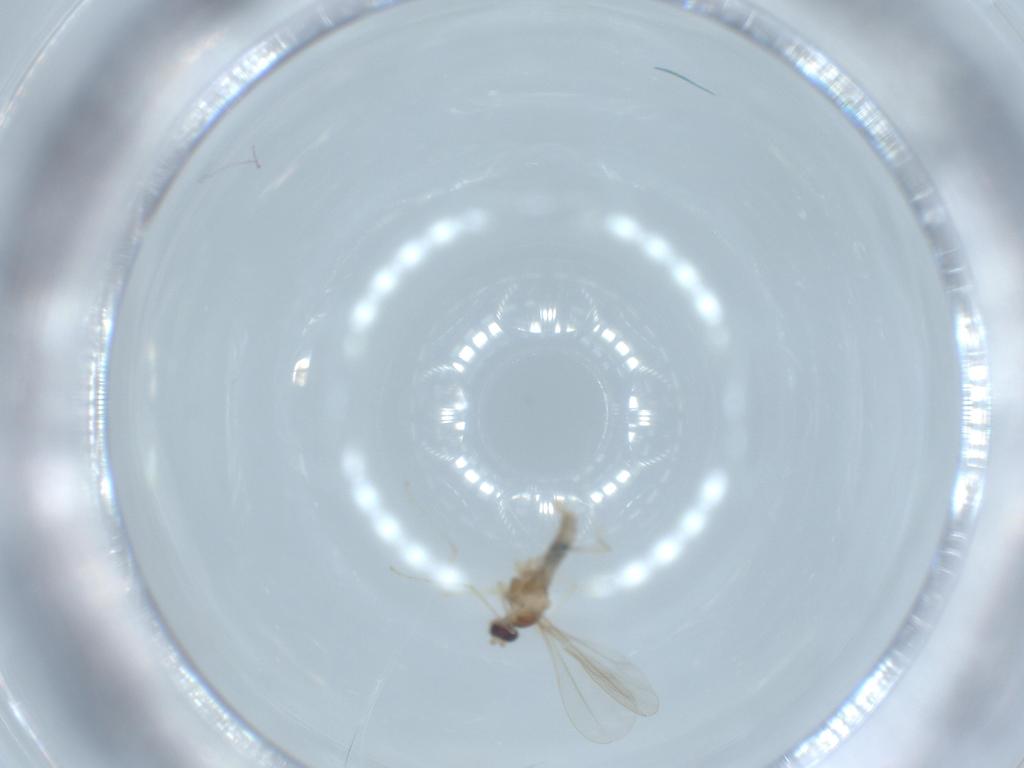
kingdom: Animalia
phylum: Arthropoda
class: Insecta
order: Diptera
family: Cecidomyiidae
